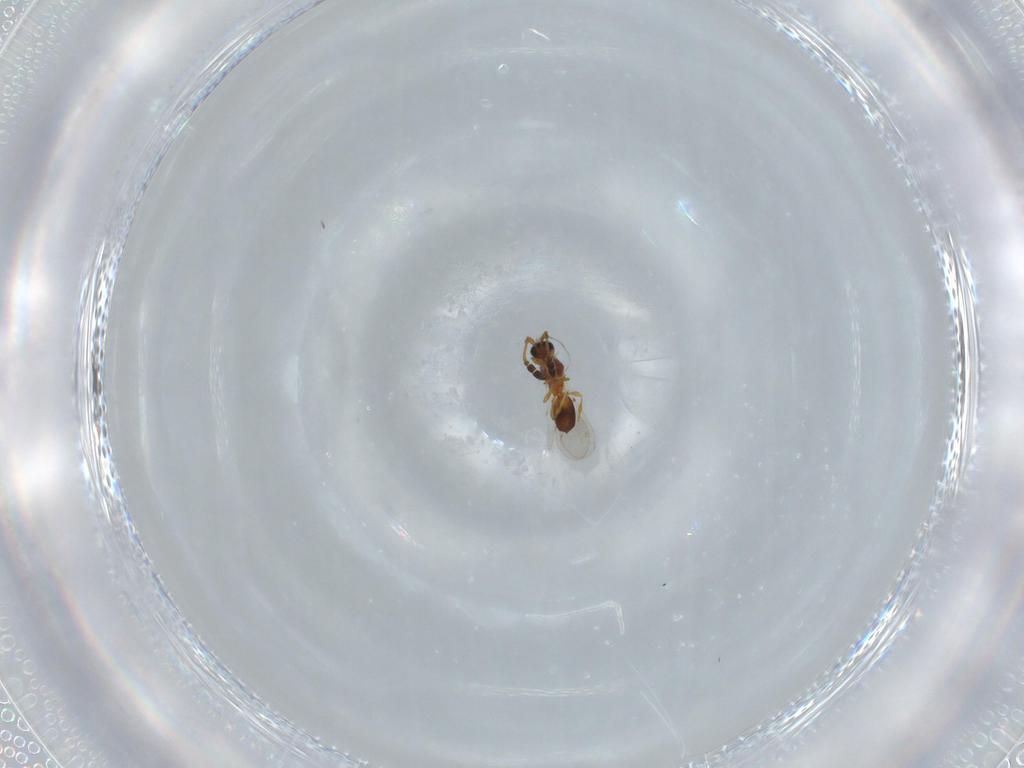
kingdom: Animalia
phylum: Arthropoda
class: Insecta
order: Hymenoptera
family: Diapriidae
